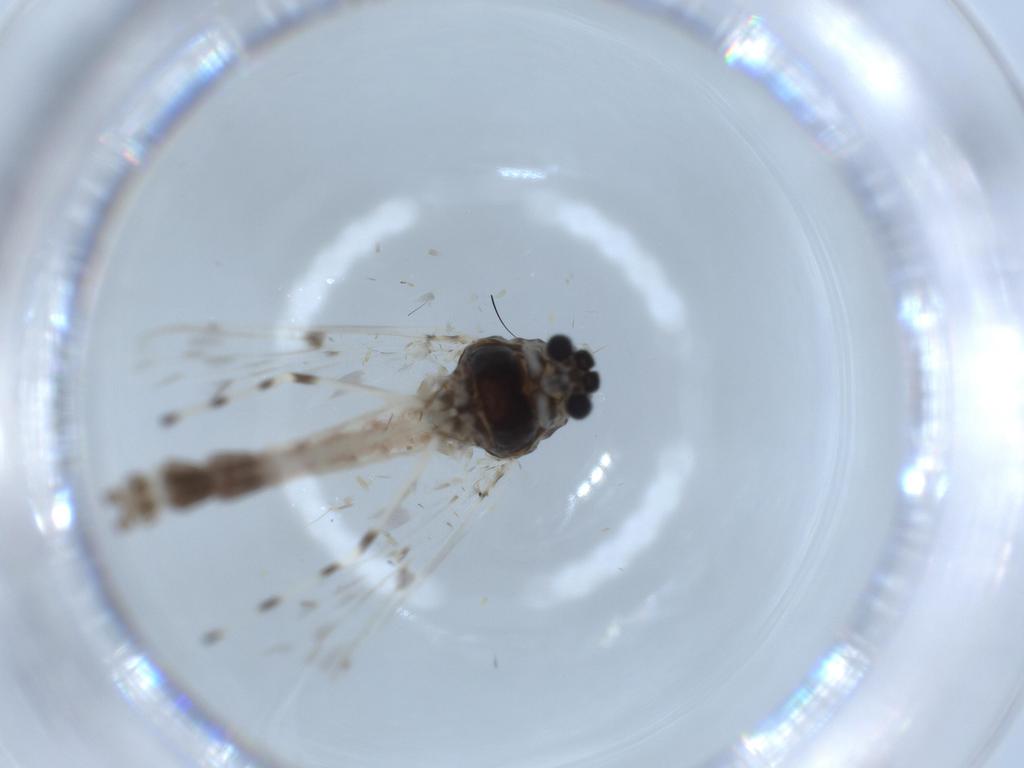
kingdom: Animalia
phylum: Arthropoda
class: Insecta
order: Diptera
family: Chironomidae
